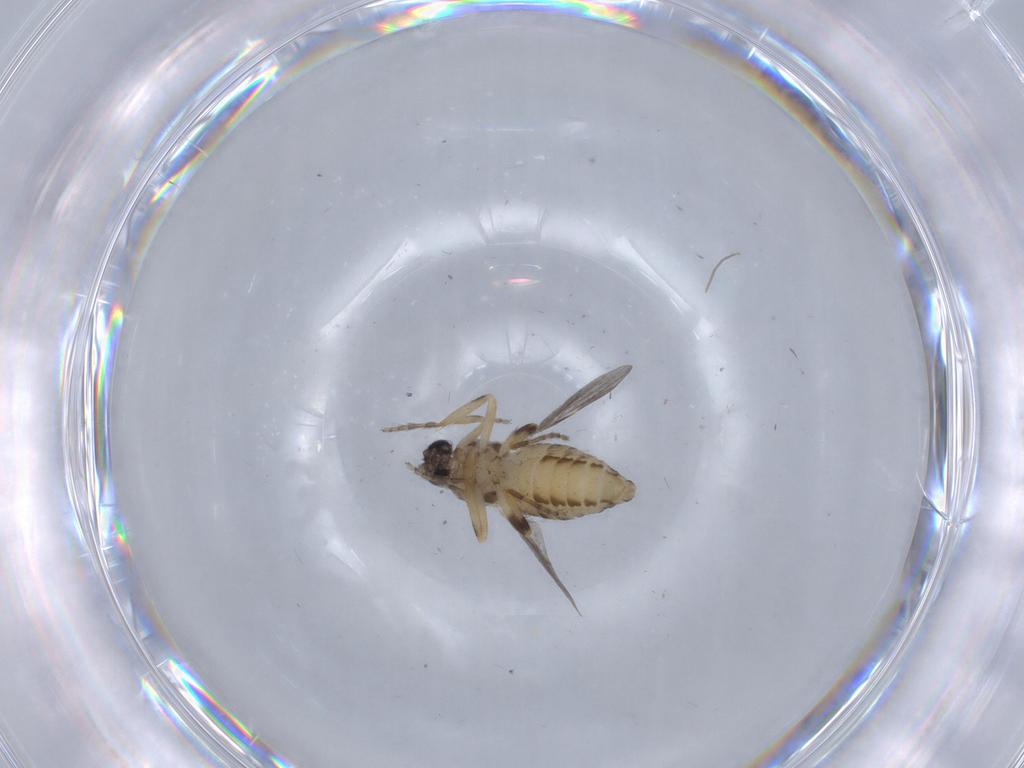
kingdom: Animalia
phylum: Arthropoda
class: Insecta
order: Diptera
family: Ceratopogonidae
